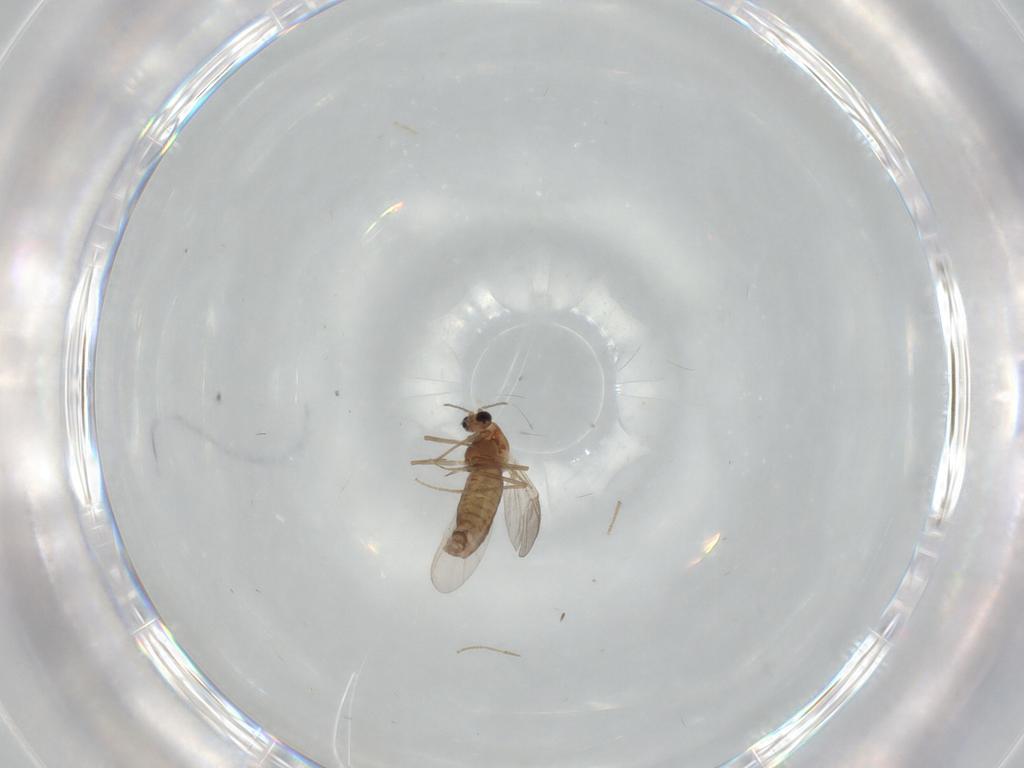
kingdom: Animalia
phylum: Arthropoda
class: Insecta
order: Diptera
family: Chironomidae
